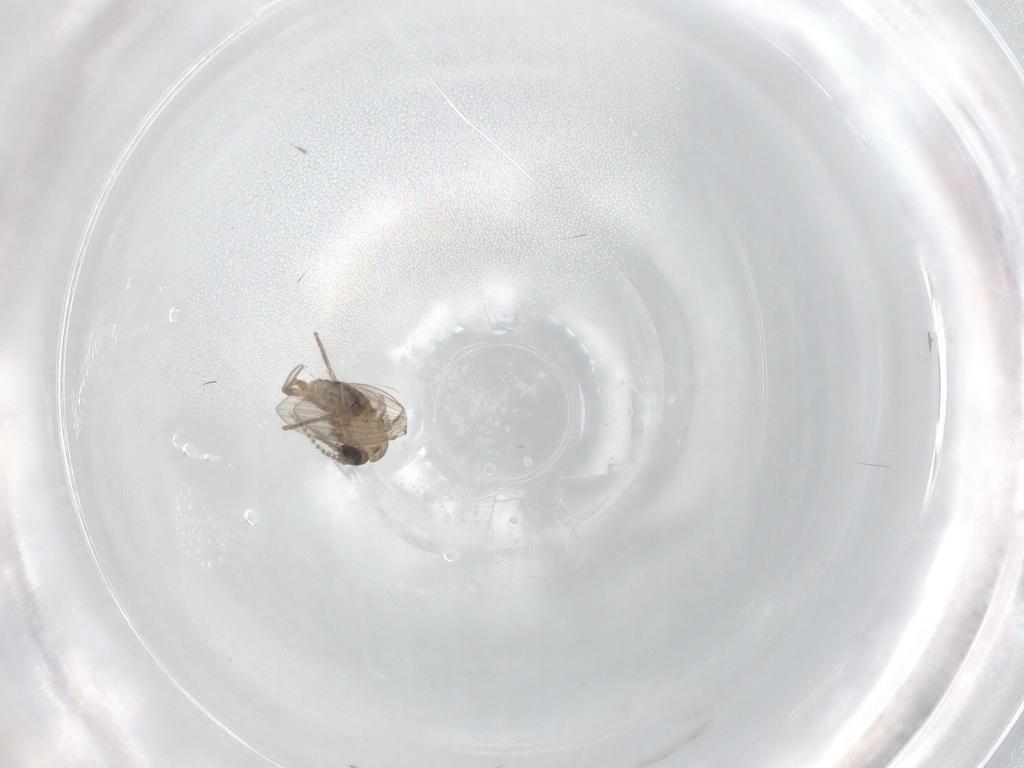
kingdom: Animalia
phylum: Arthropoda
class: Insecta
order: Diptera
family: Psychodidae
